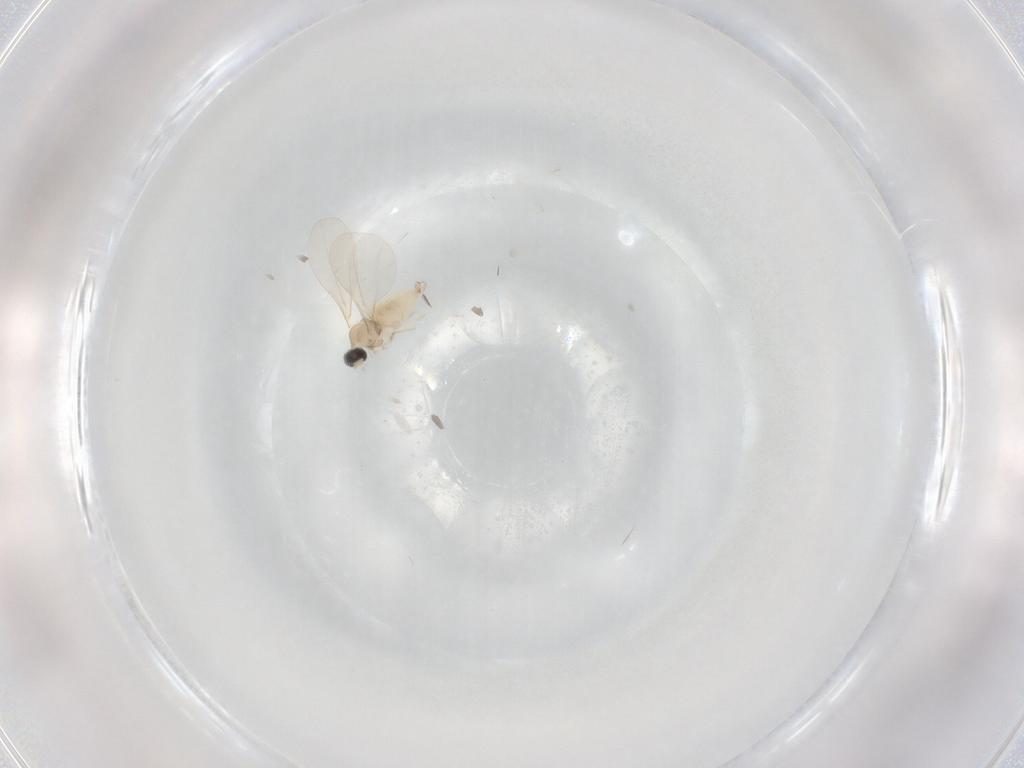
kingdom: Animalia
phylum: Arthropoda
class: Insecta
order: Diptera
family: Cecidomyiidae
